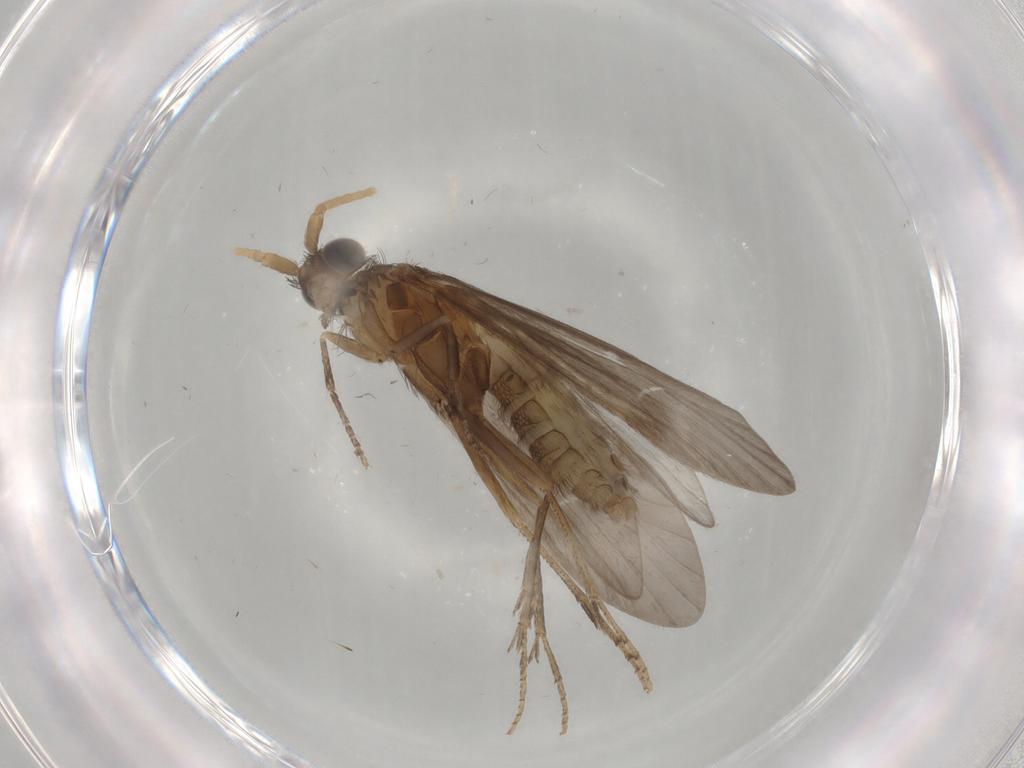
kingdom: Animalia
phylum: Arthropoda
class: Insecta
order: Trichoptera
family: Helicopsychidae
